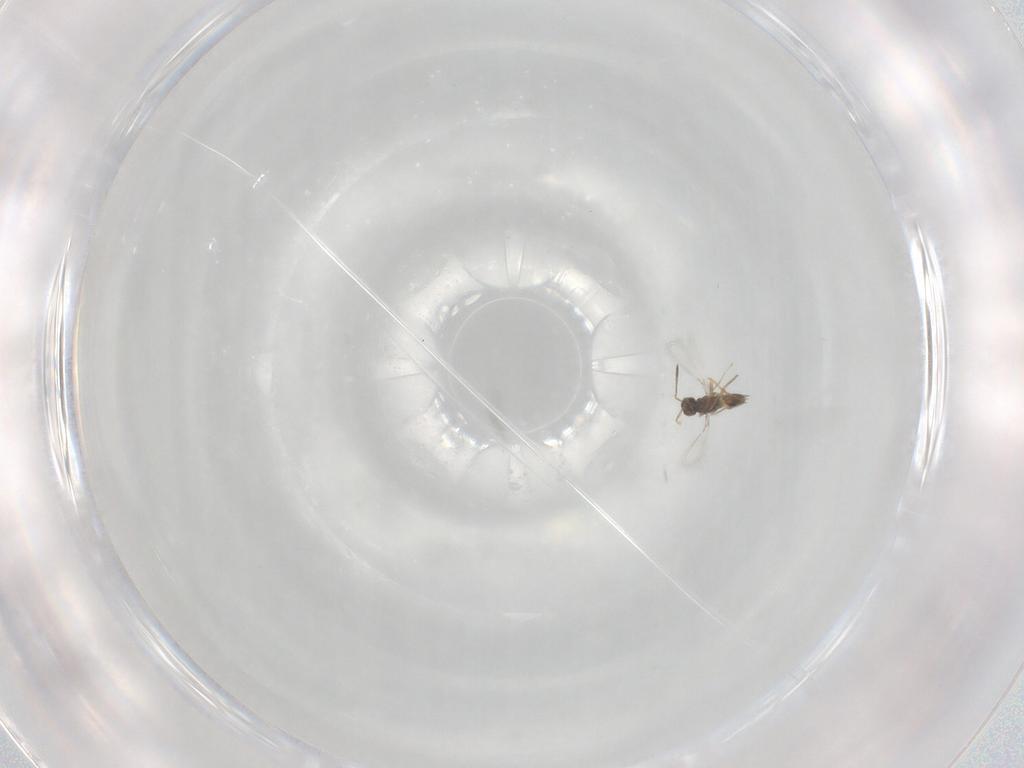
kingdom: Animalia
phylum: Arthropoda
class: Insecta
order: Hymenoptera
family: Mymaridae
